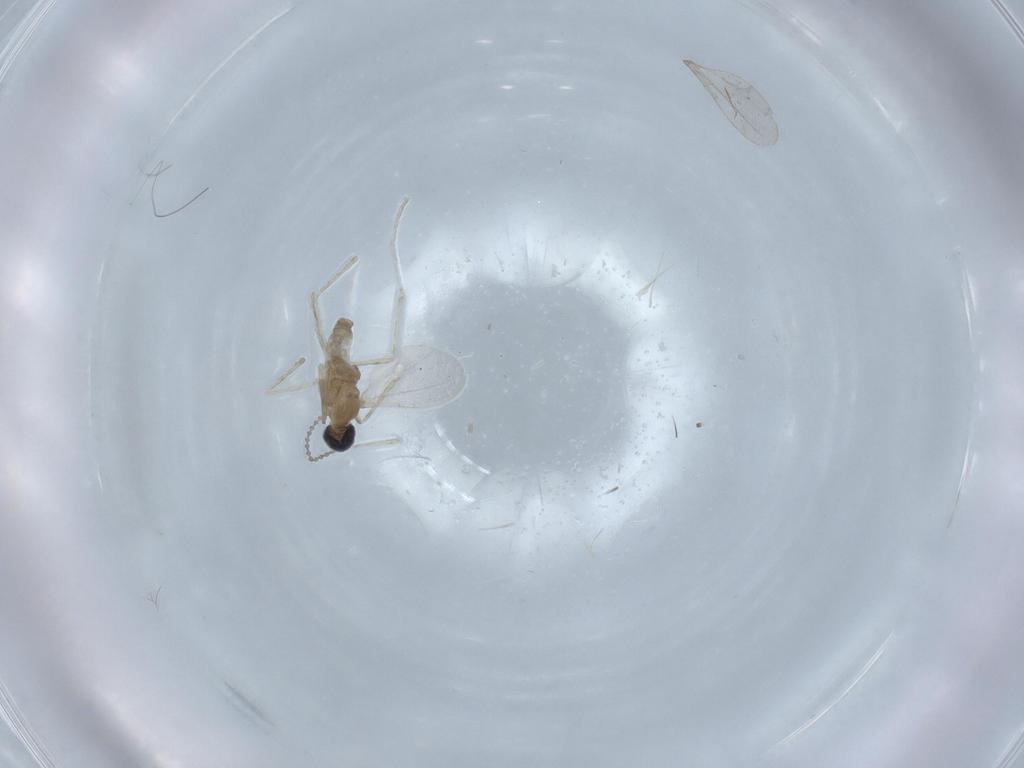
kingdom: Animalia
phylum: Arthropoda
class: Insecta
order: Diptera
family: Cecidomyiidae
